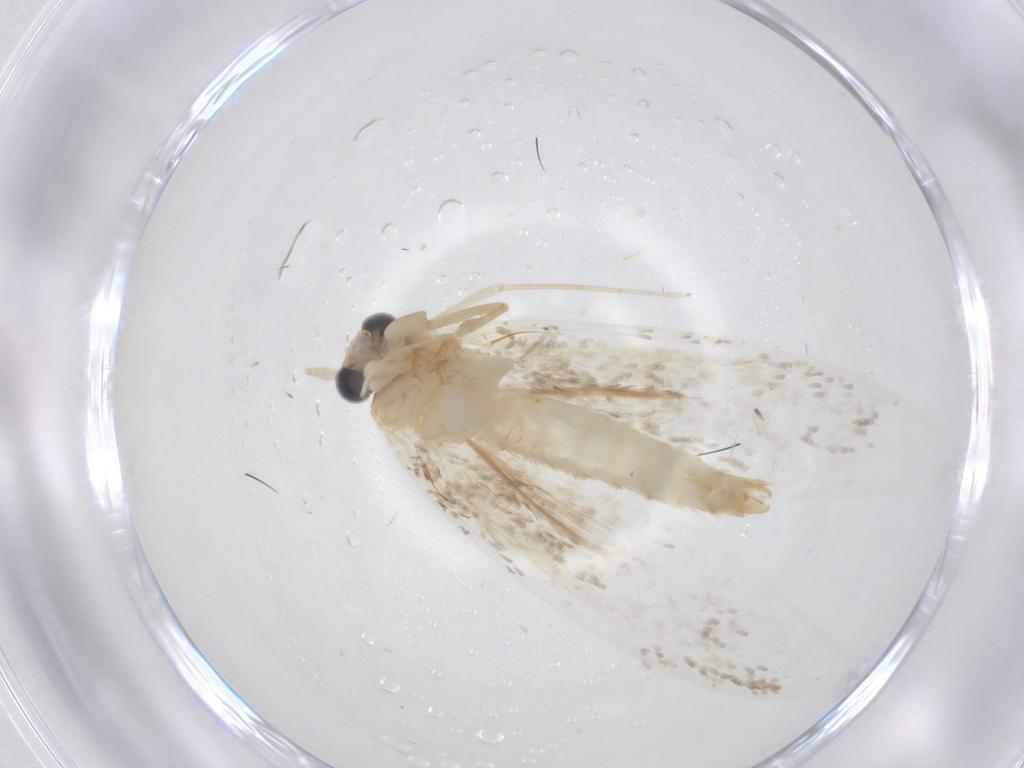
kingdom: Animalia
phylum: Arthropoda
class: Insecta
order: Lepidoptera
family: Tineidae
